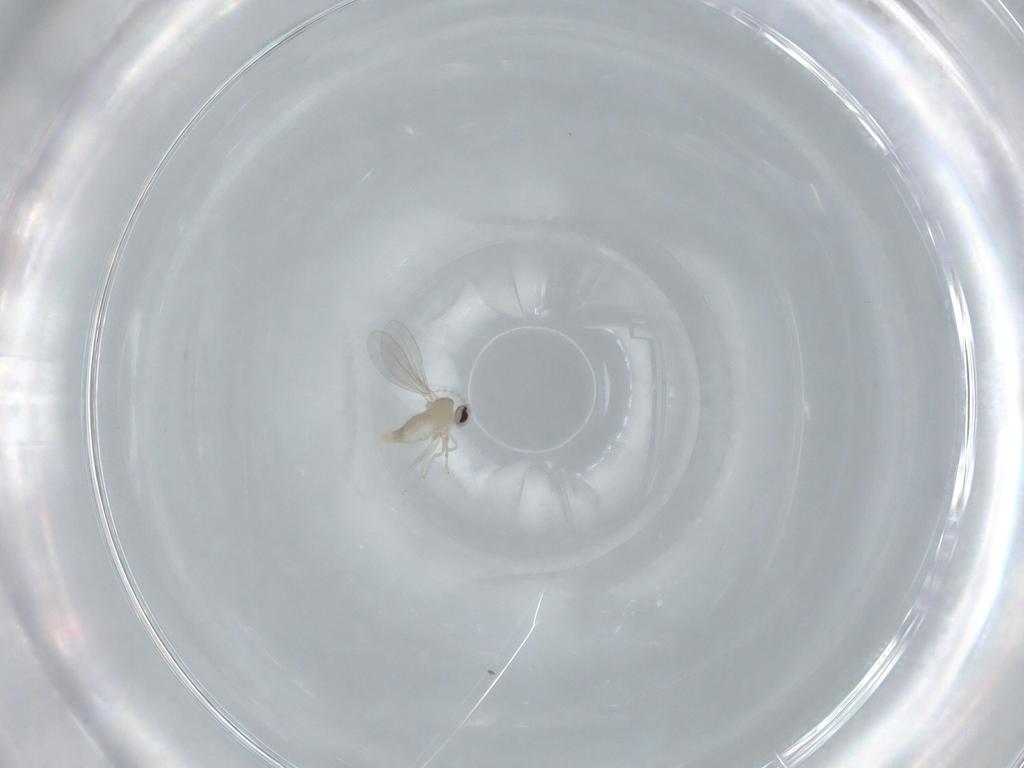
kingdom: Animalia
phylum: Arthropoda
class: Insecta
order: Diptera
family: Cecidomyiidae
